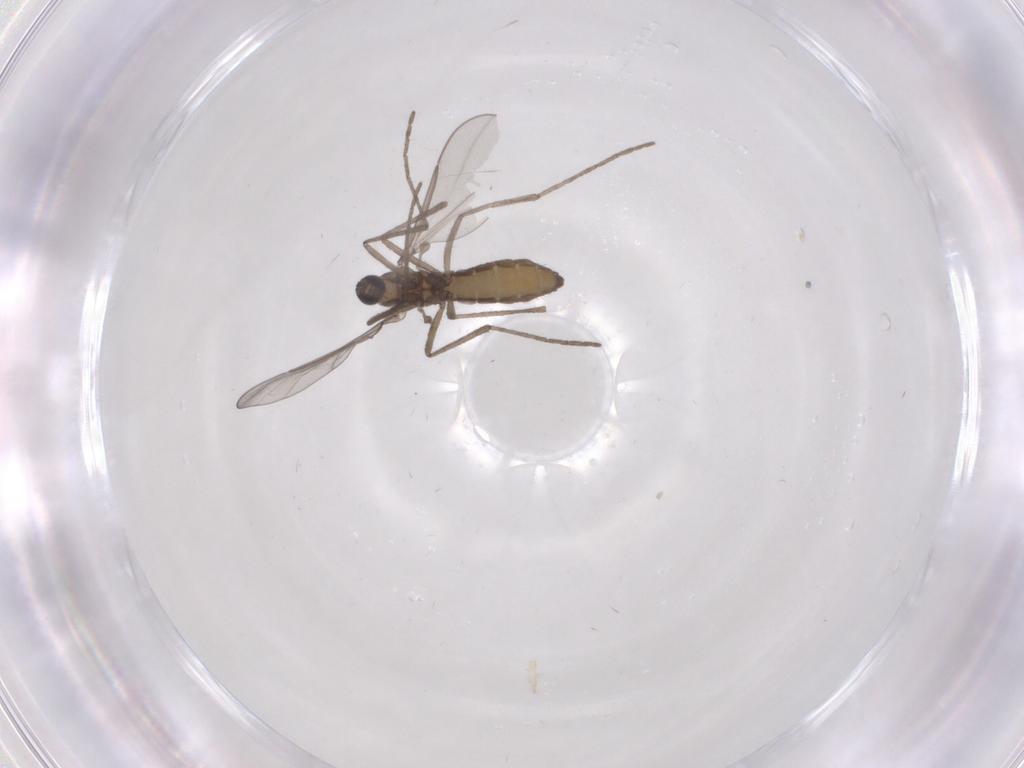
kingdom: Animalia
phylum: Arthropoda
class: Insecta
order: Diptera
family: Cecidomyiidae
